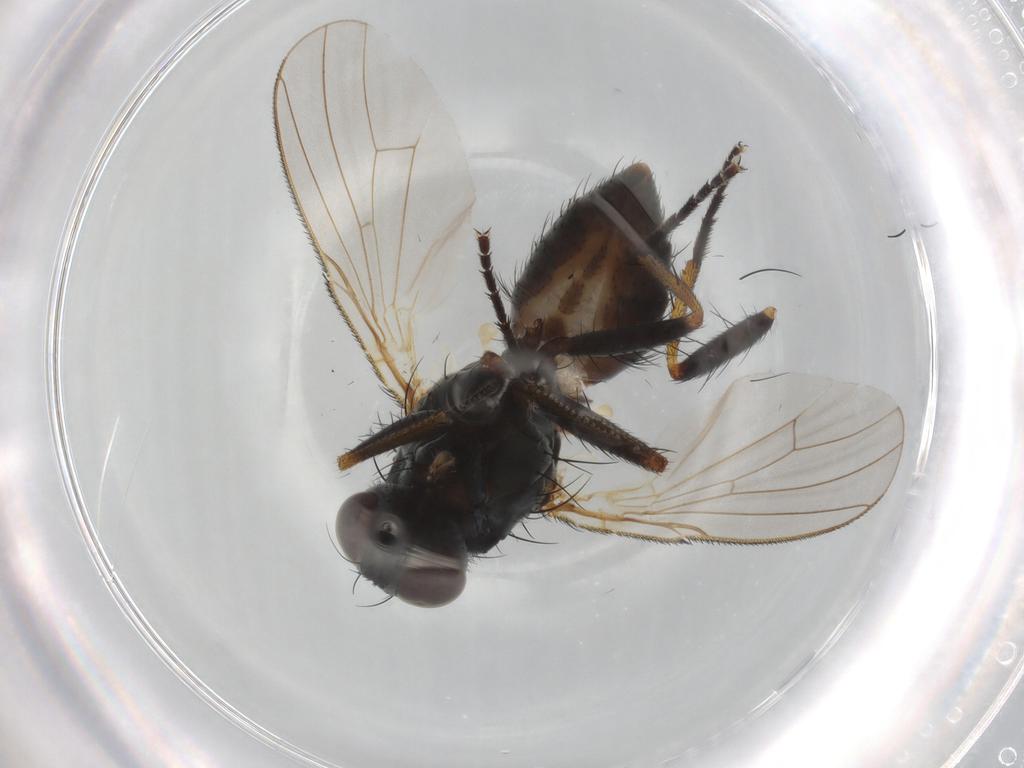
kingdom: Animalia
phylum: Arthropoda
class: Insecta
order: Diptera
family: Muscidae
